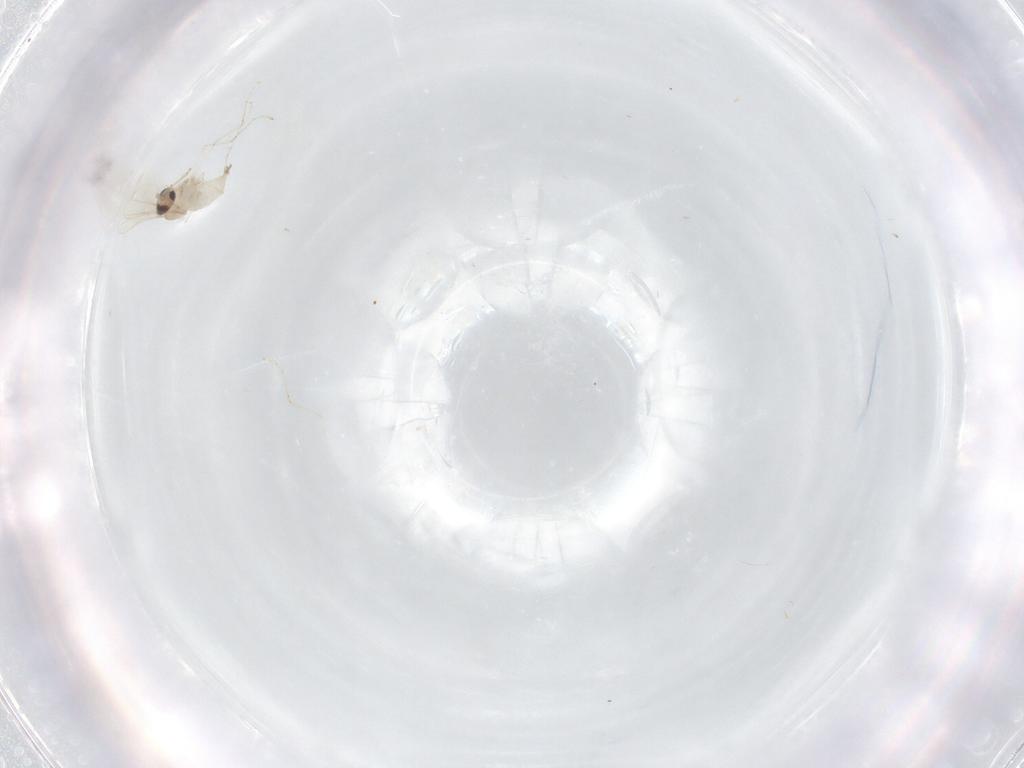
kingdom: Animalia
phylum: Arthropoda
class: Insecta
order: Diptera
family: Cecidomyiidae
